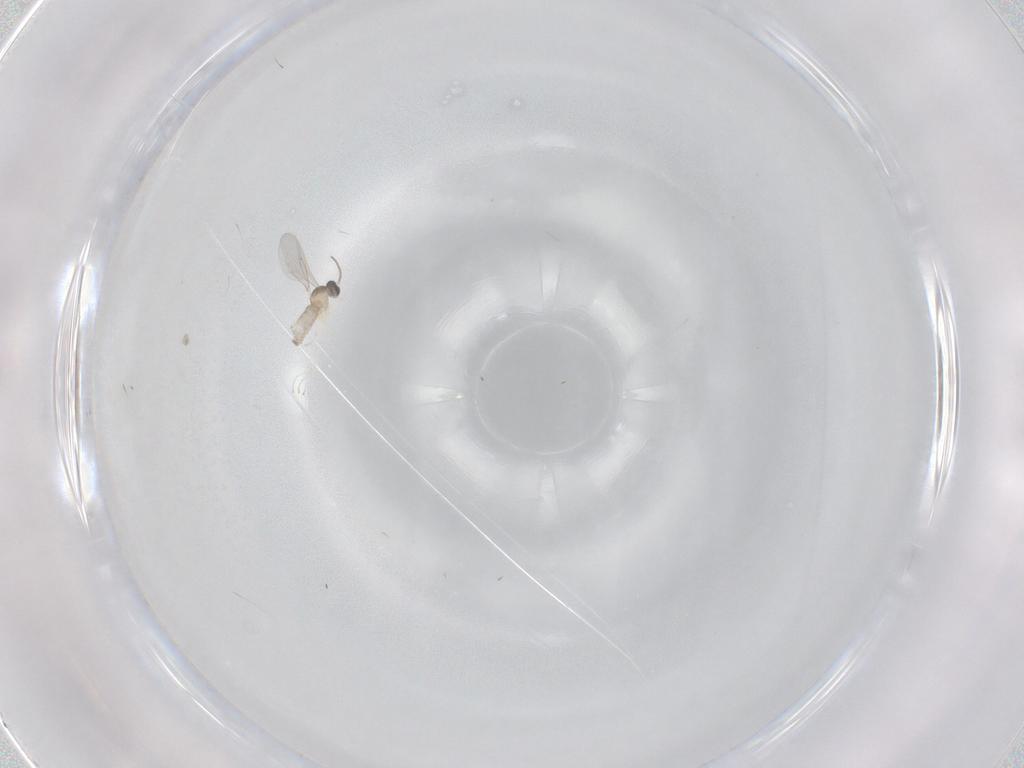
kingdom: Animalia
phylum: Arthropoda
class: Insecta
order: Diptera
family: Cecidomyiidae
